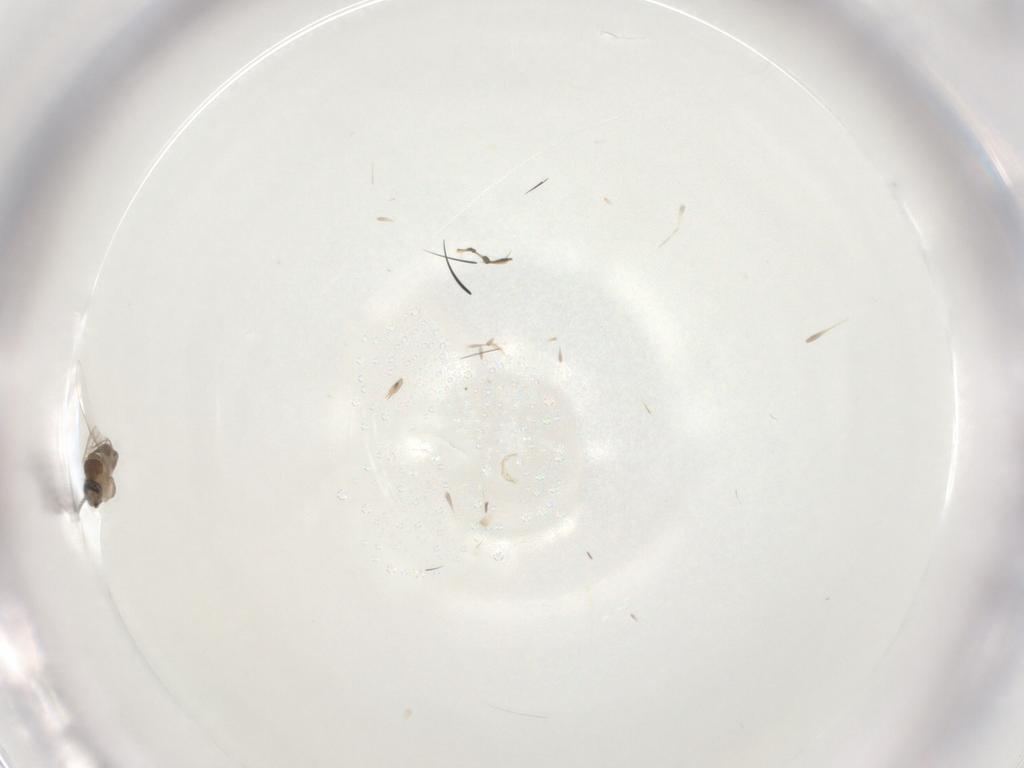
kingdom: Animalia
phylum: Arthropoda
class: Insecta
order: Diptera
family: Cecidomyiidae
